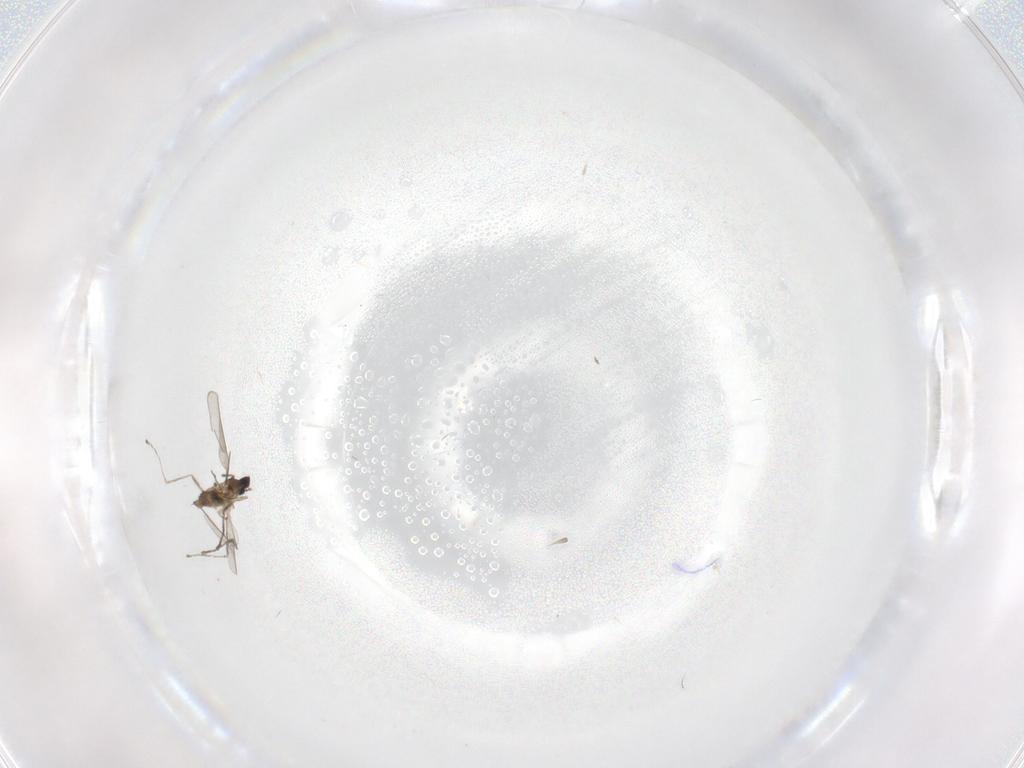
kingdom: Animalia
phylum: Arthropoda
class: Insecta
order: Diptera
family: Cecidomyiidae
